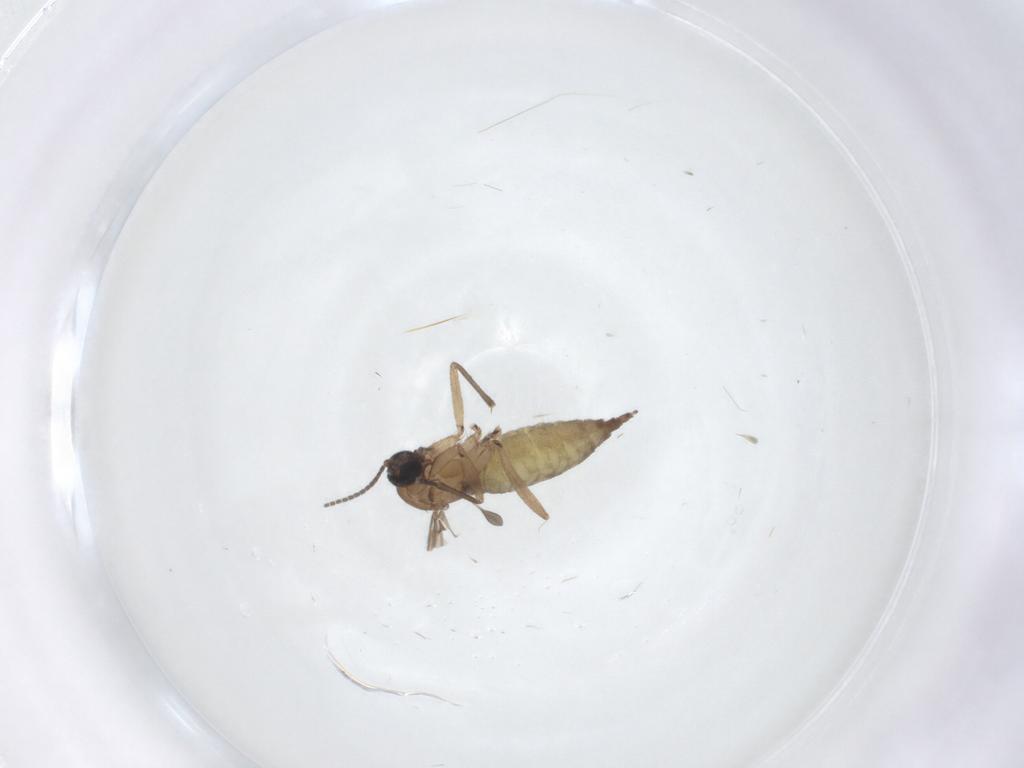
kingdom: Animalia
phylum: Arthropoda
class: Insecta
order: Diptera
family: Sciaridae
